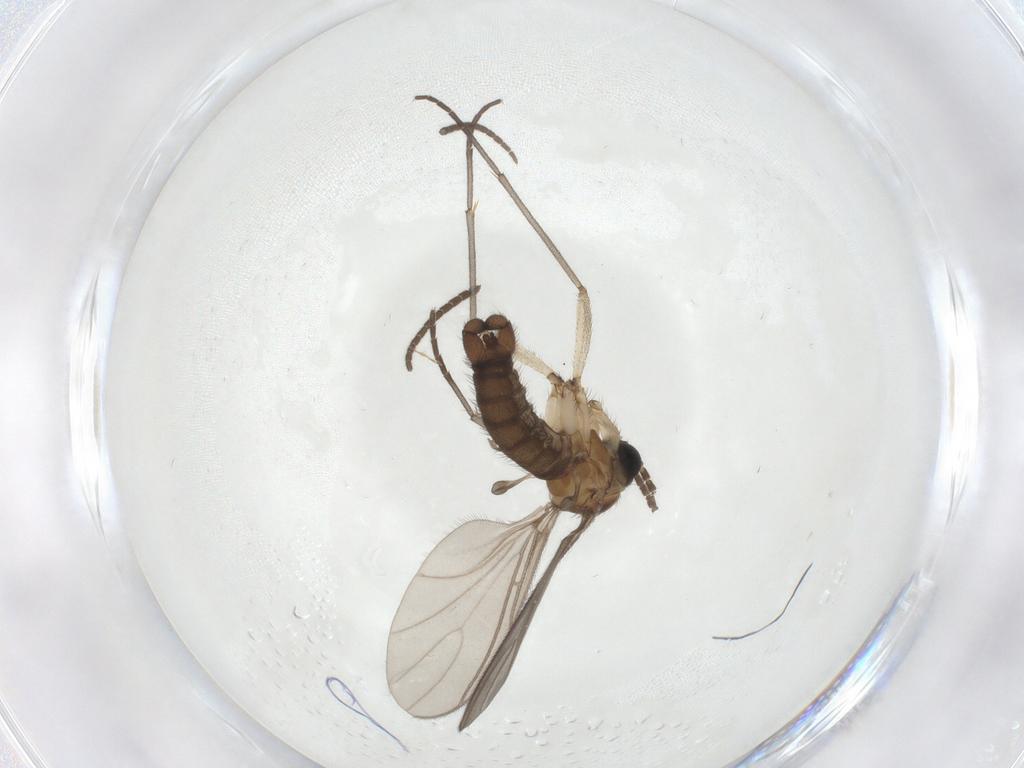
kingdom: Animalia
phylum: Arthropoda
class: Insecta
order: Diptera
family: Sciaridae
